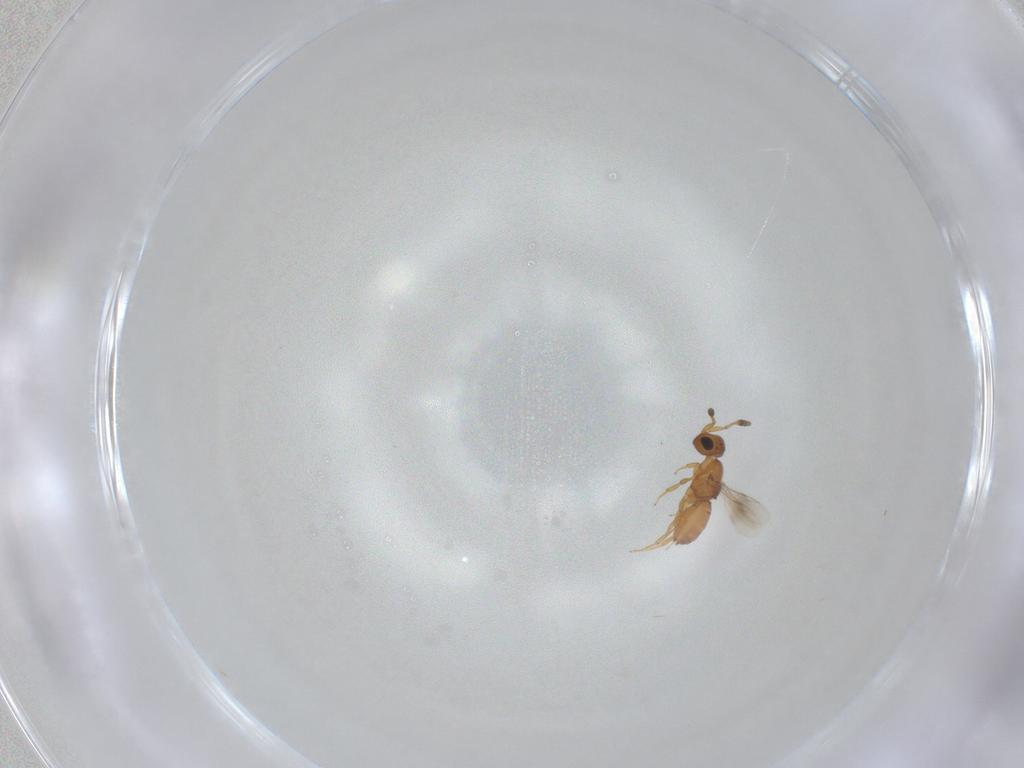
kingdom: Animalia
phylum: Arthropoda
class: Insecta
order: Hymenoptera
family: Scelionidae
